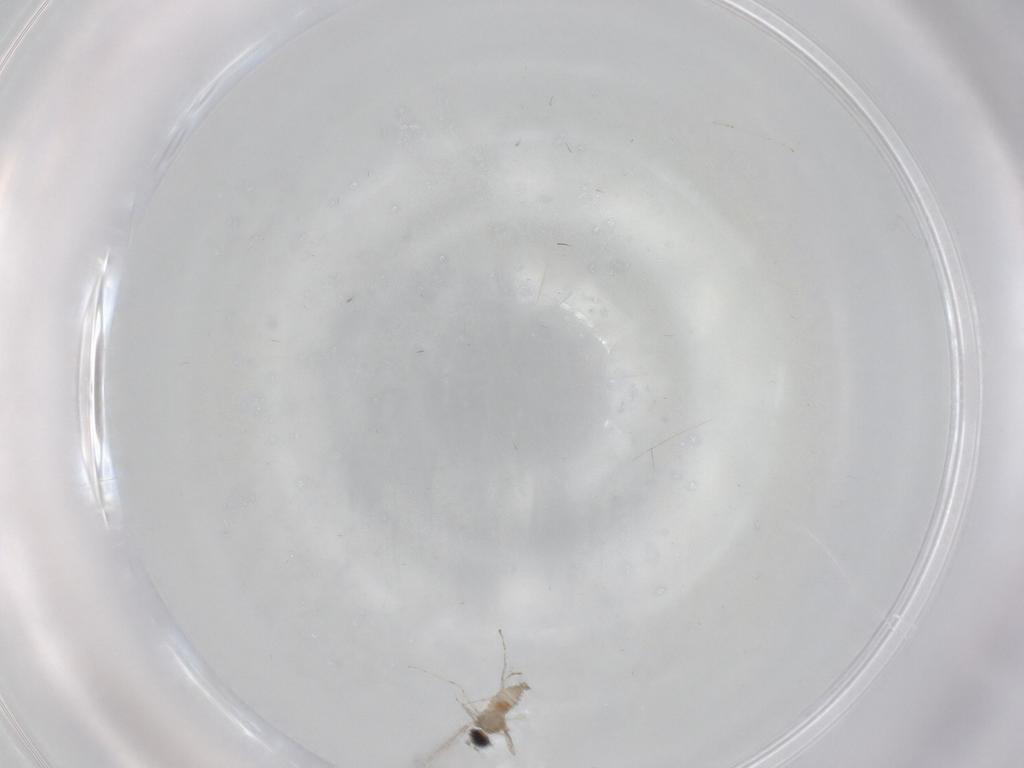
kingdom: Animalia
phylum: Arthropoda
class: Insecta
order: Diptera
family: Cecidomyiidae
